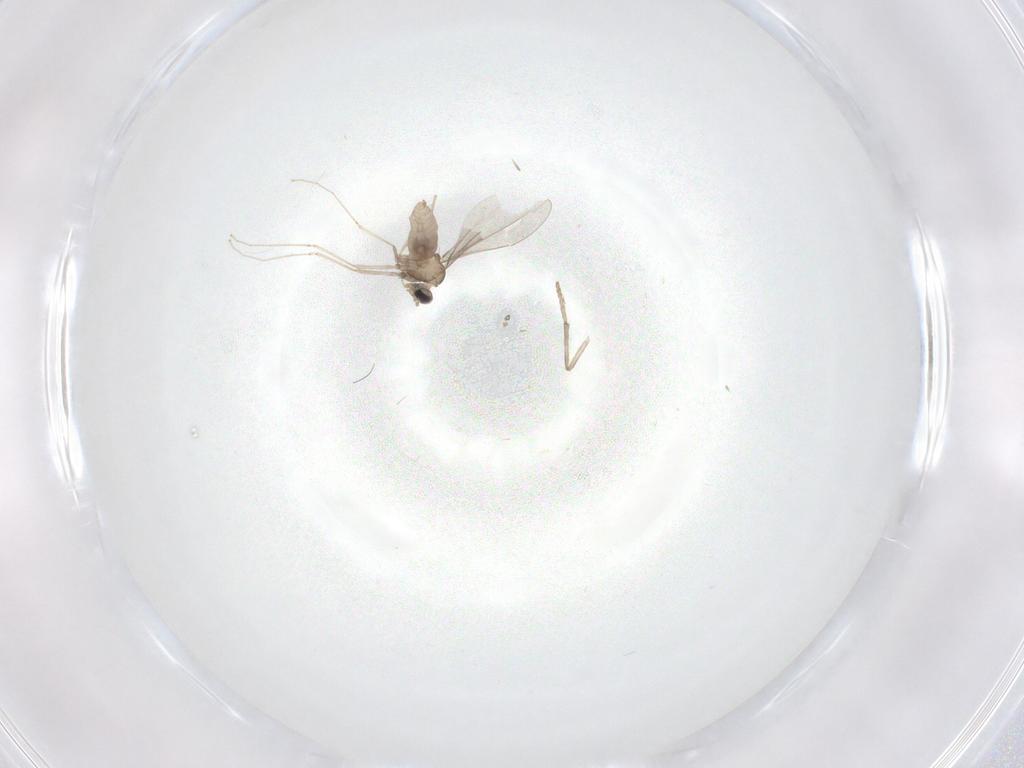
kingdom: Animalia
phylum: Arthropoda
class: Insecta
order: Diptera
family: Cecidomyiidae
